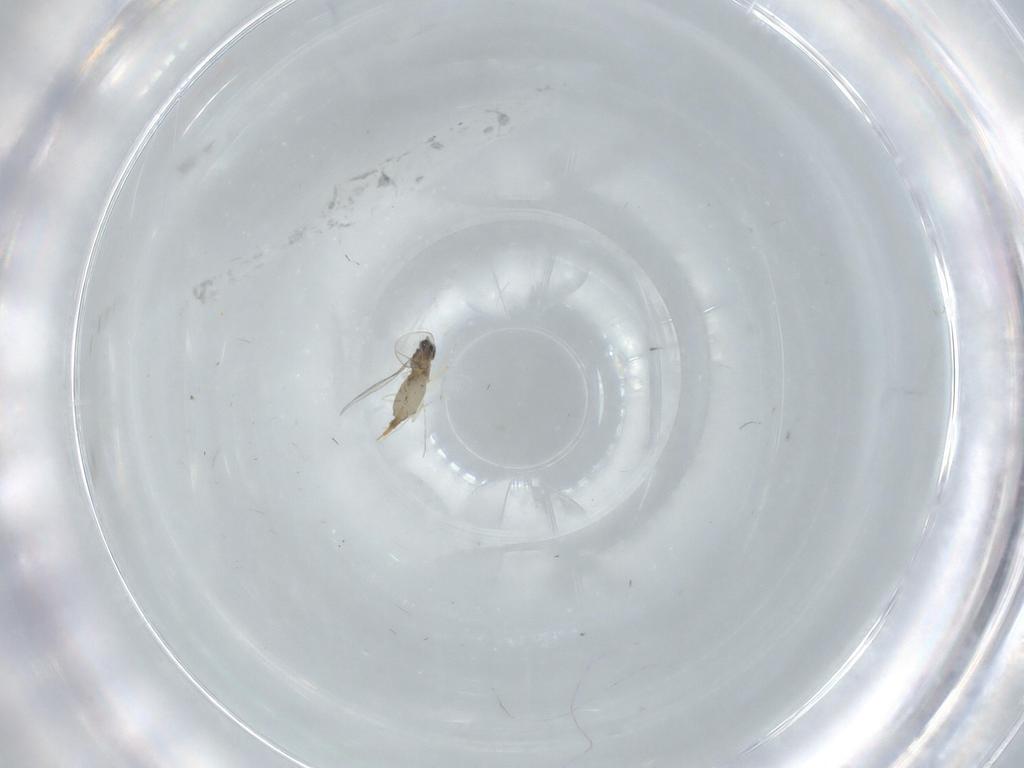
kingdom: Animalia
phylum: Arthropoda
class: Insecta
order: Diptera
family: Cecidomyiidae
